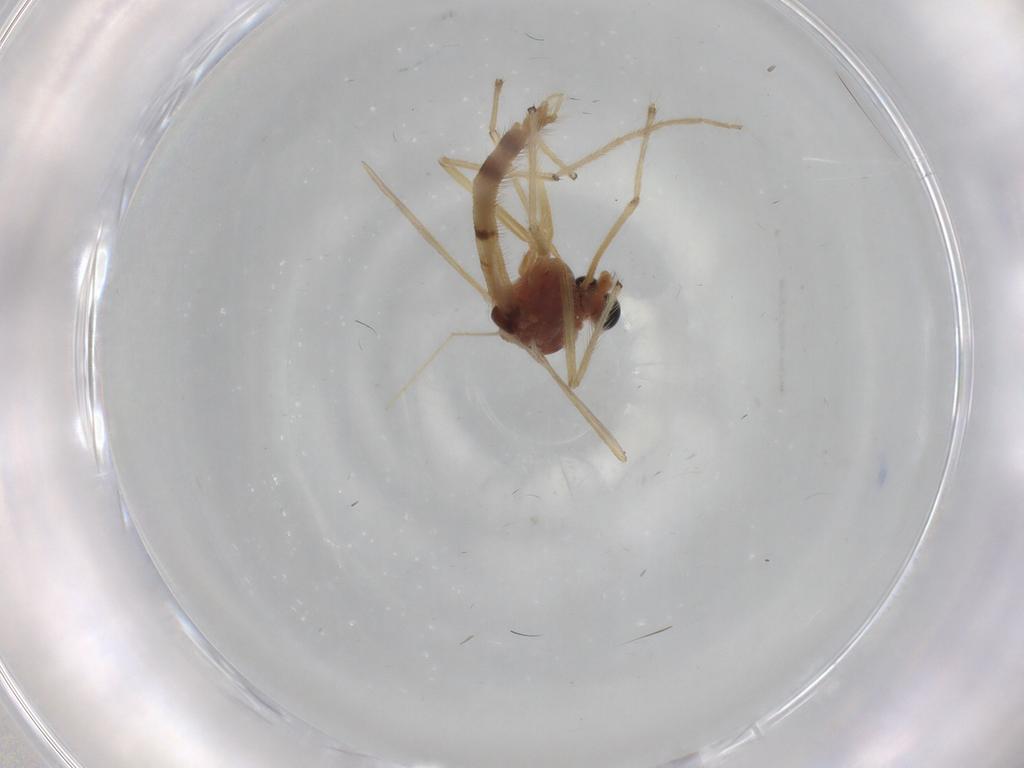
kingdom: Animalia
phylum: Arthropoda
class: Insecta
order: Diptera
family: Chironomidae
